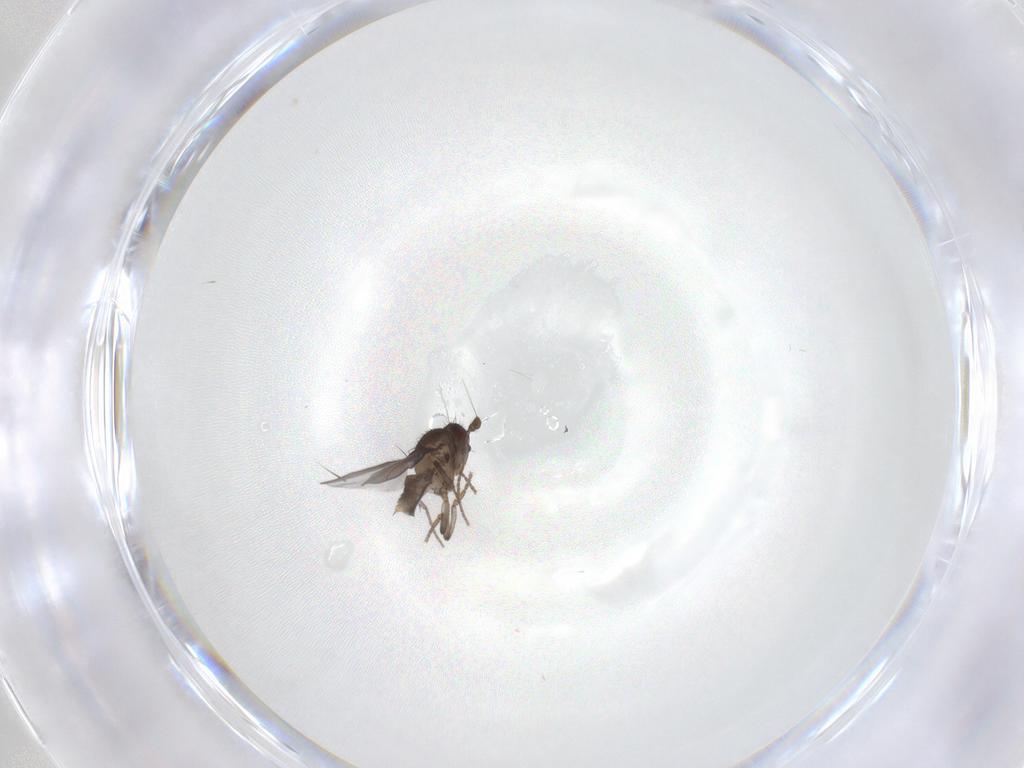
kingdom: Animalia
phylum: Arthropoda
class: Insecta
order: Diptera
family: Sphaeroceridae
